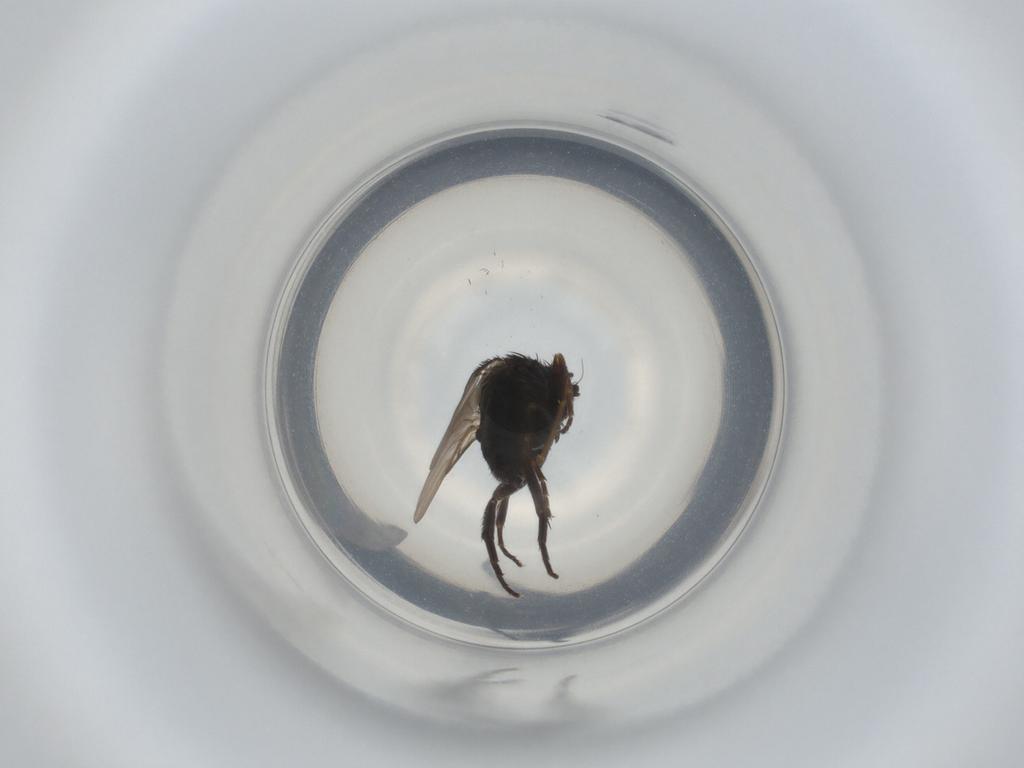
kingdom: Animalia
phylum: Arthropoda
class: Insecta
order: Diptera
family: Phoridae
